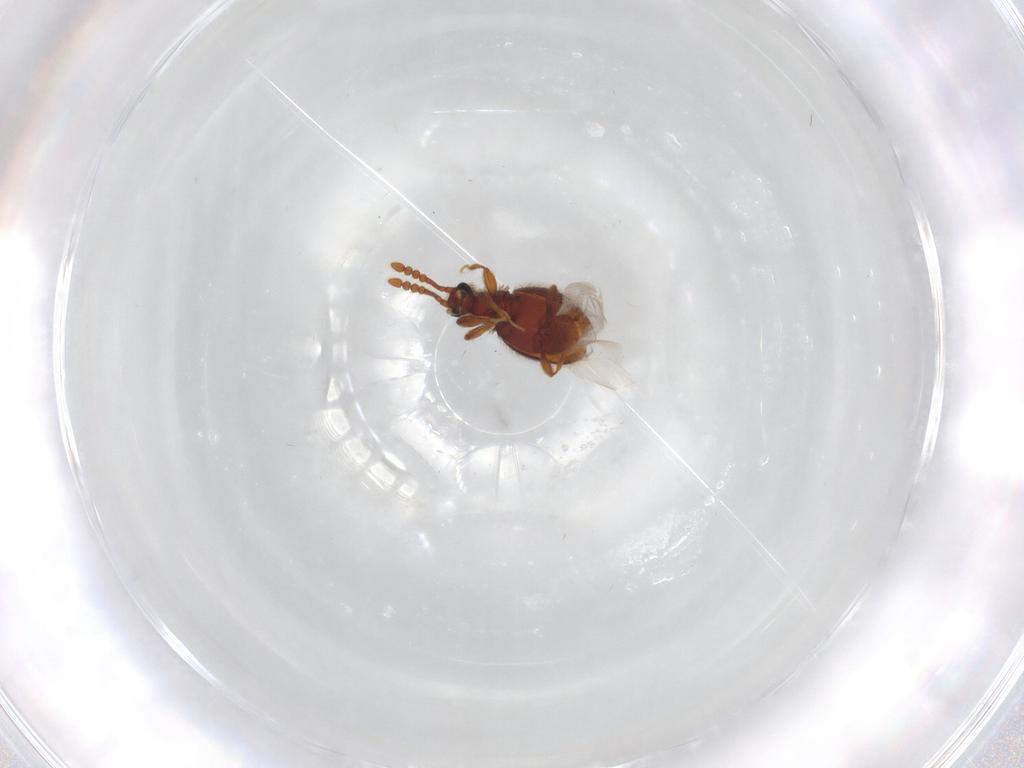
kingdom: Animalia
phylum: Arthropoda
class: Insecta
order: Coleoptera
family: Staphylinidae
